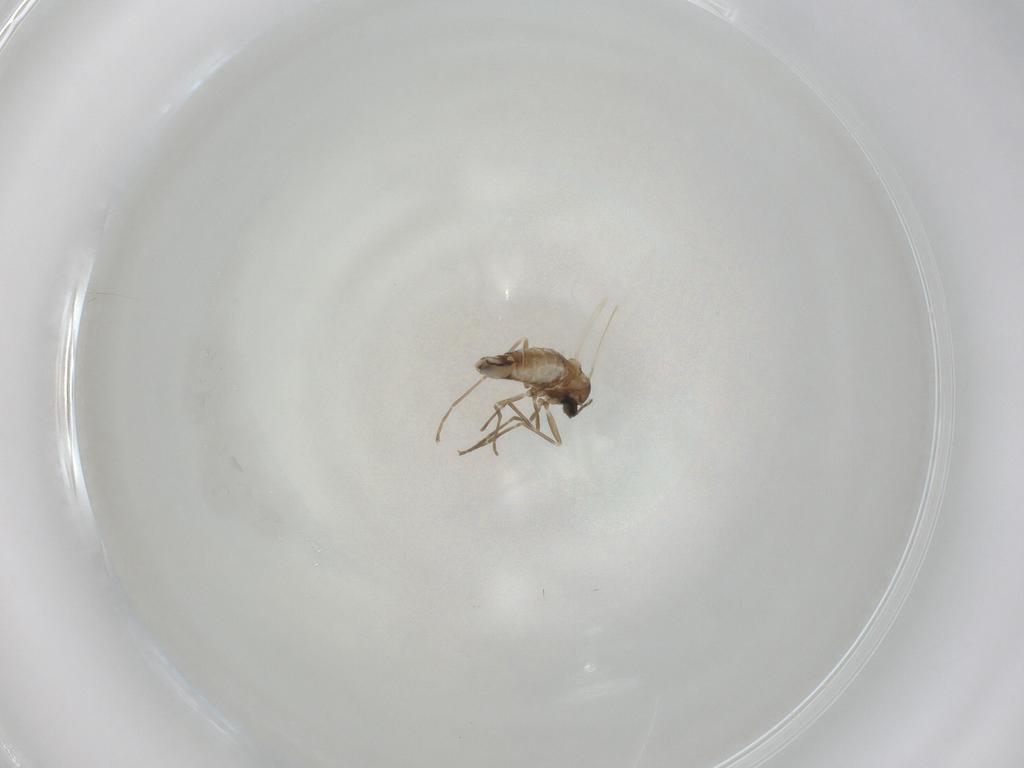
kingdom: Animalia
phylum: Arthropoda
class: Insecta
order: Diptera
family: Cecidomyiidae
